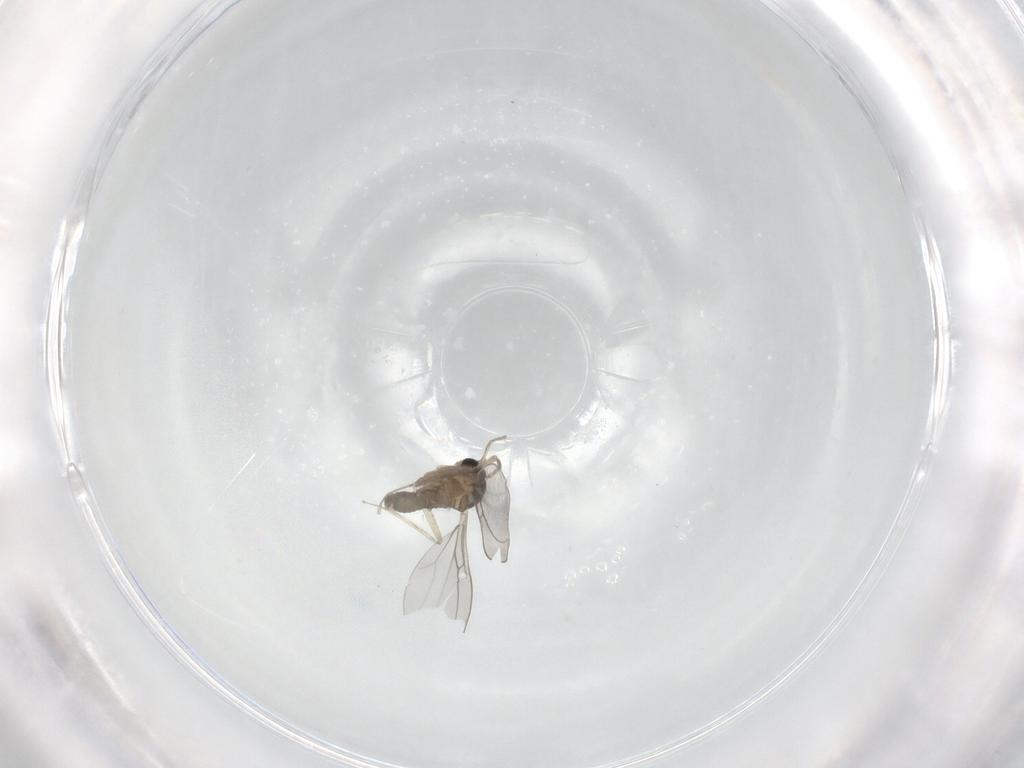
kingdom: Animalia
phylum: Arthropoda
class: Insecta
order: Diptera
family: Cecidomyiidae
